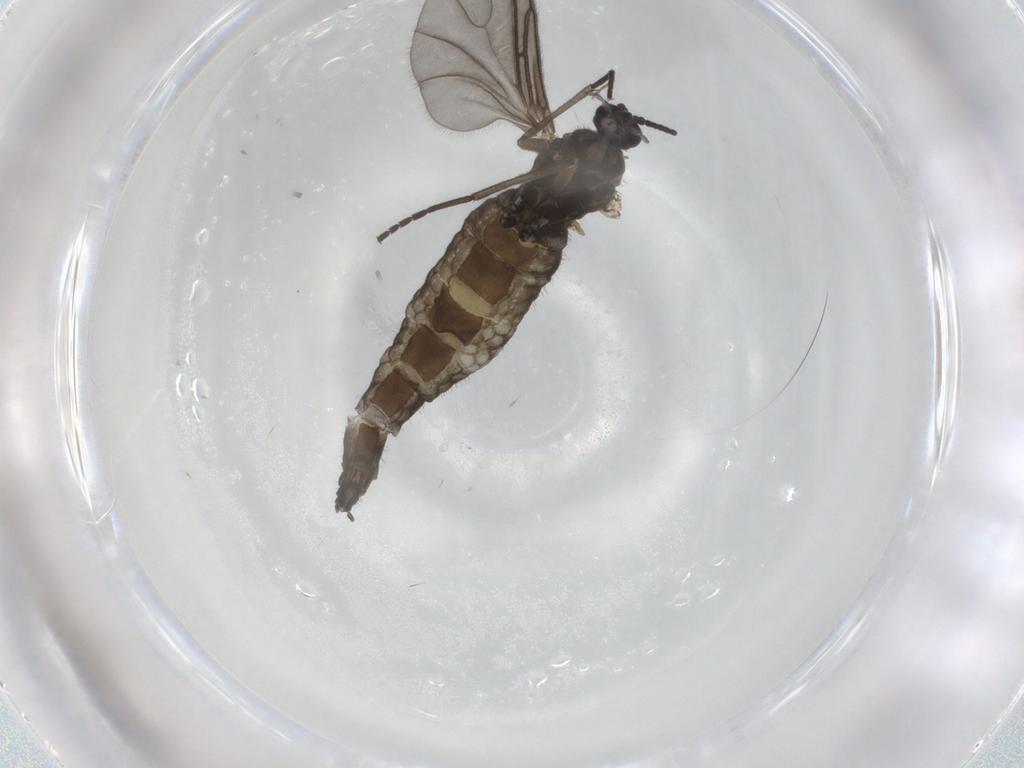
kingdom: Animalia
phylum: Arthropoda
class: Insecta
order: Diptera
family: Sciaridae
